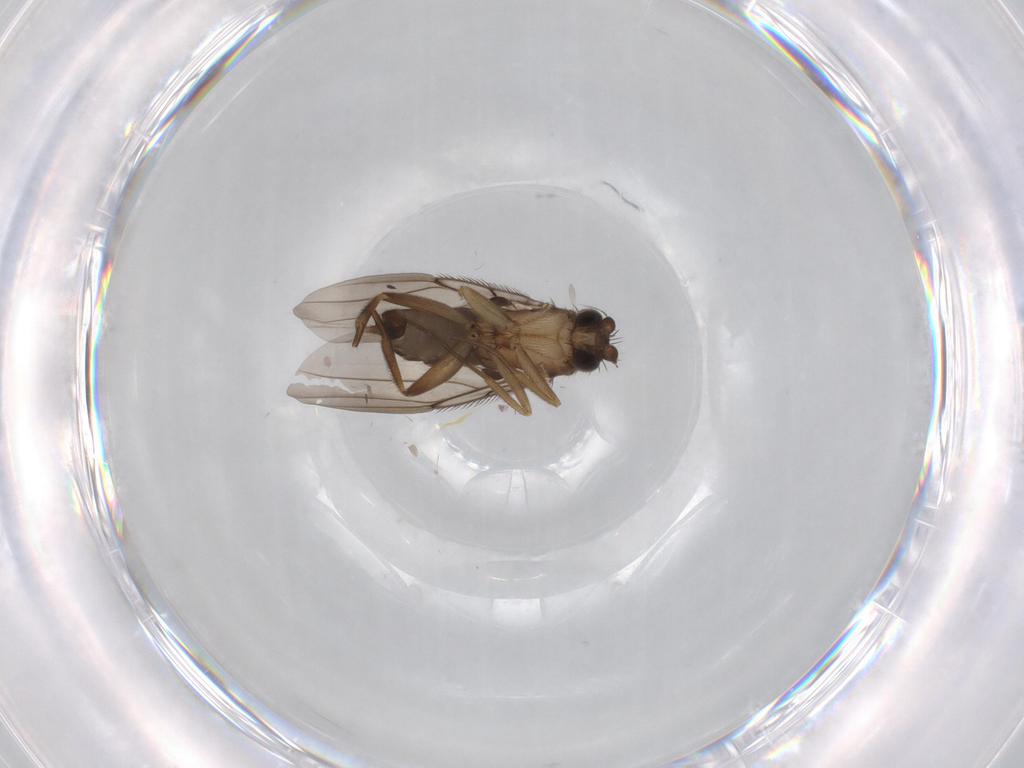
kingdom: Animalia
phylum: Arthropoda
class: Insecta
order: Diptera
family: Phoridae
